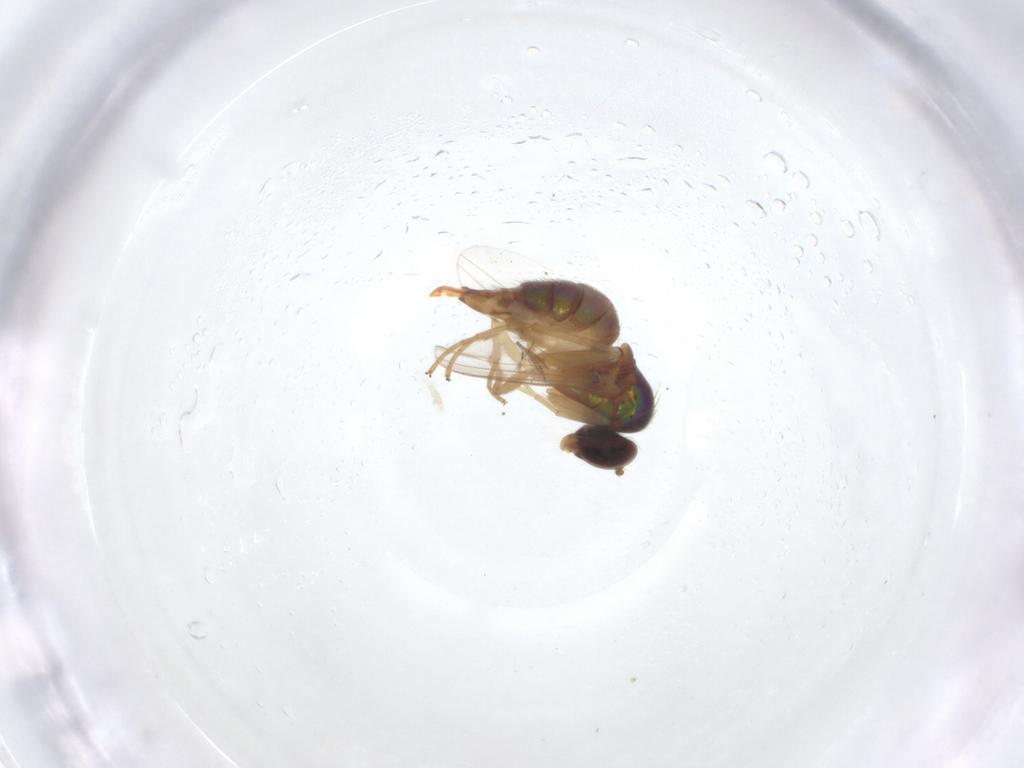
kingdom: Animalia
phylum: Arthropoda
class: Insecta
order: Diptera
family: Dolichopodidae
